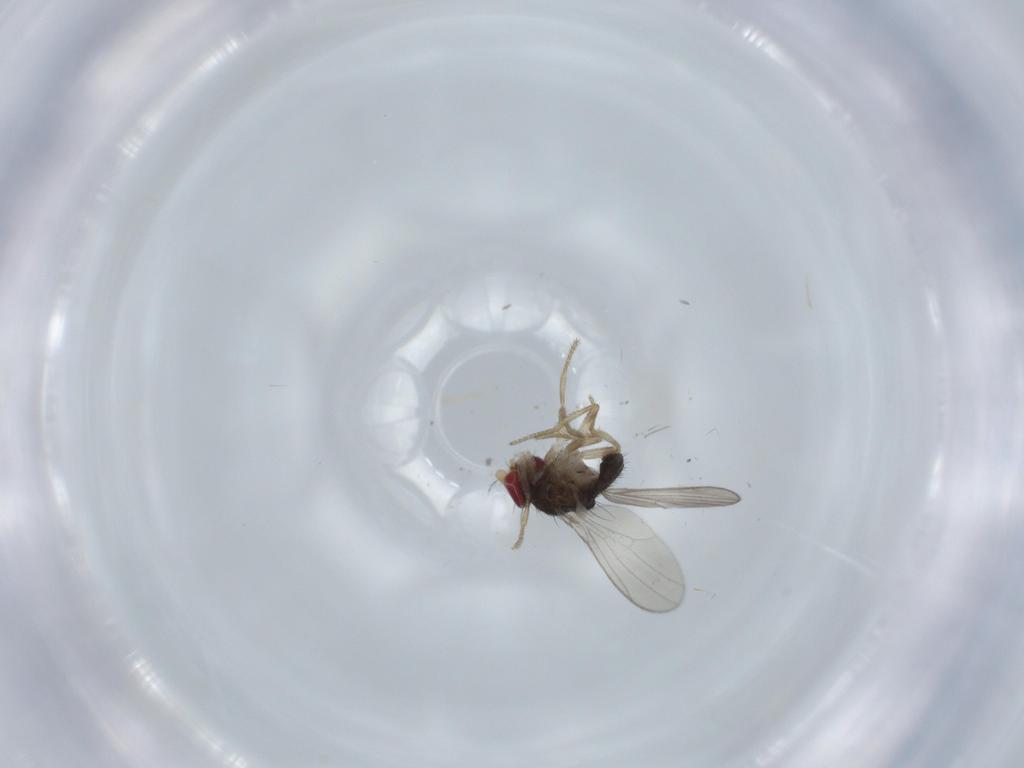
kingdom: Animalia
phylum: Arthropoda
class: Insecta
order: Diptera
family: Drosophilidae
